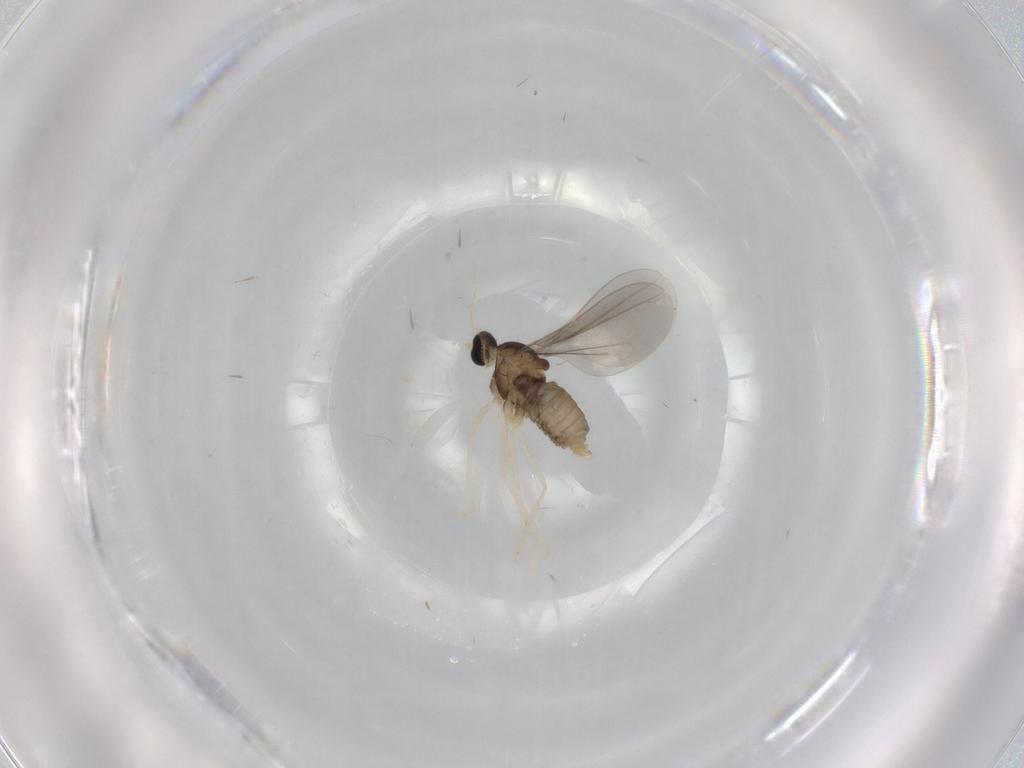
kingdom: Animalia
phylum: Arthropoda
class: Insecta
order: Diptera
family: Cecidomyiidae
